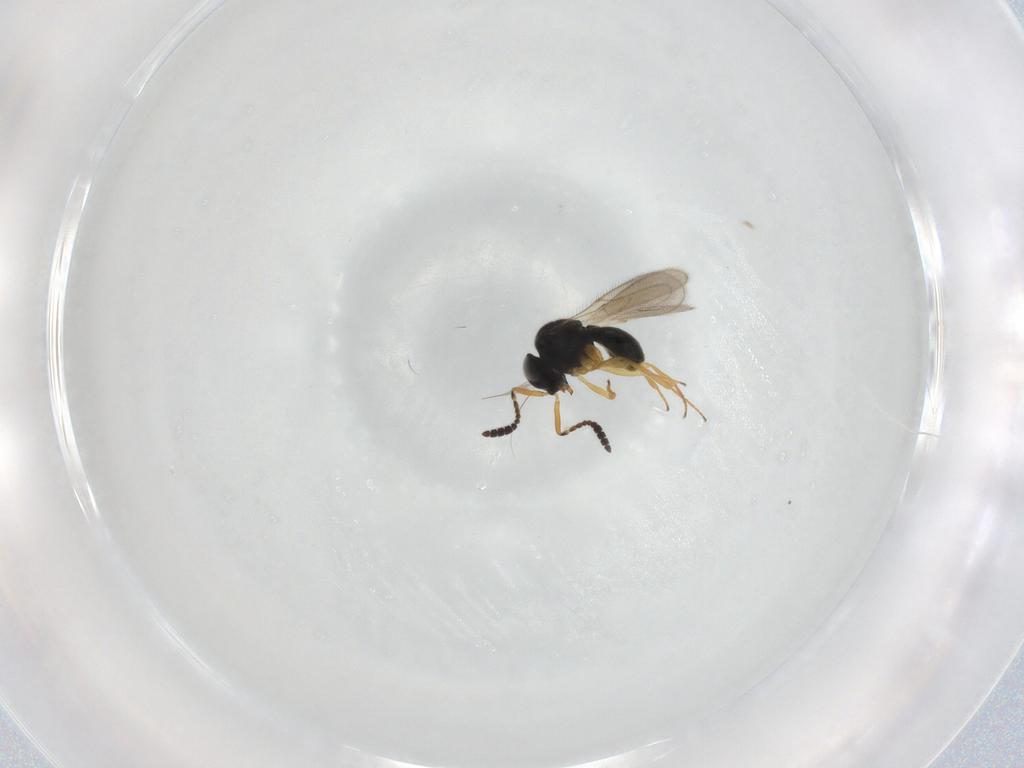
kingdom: Animalia
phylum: Arthropoda
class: Insecta
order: Hymenoptera
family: Scelionidae
